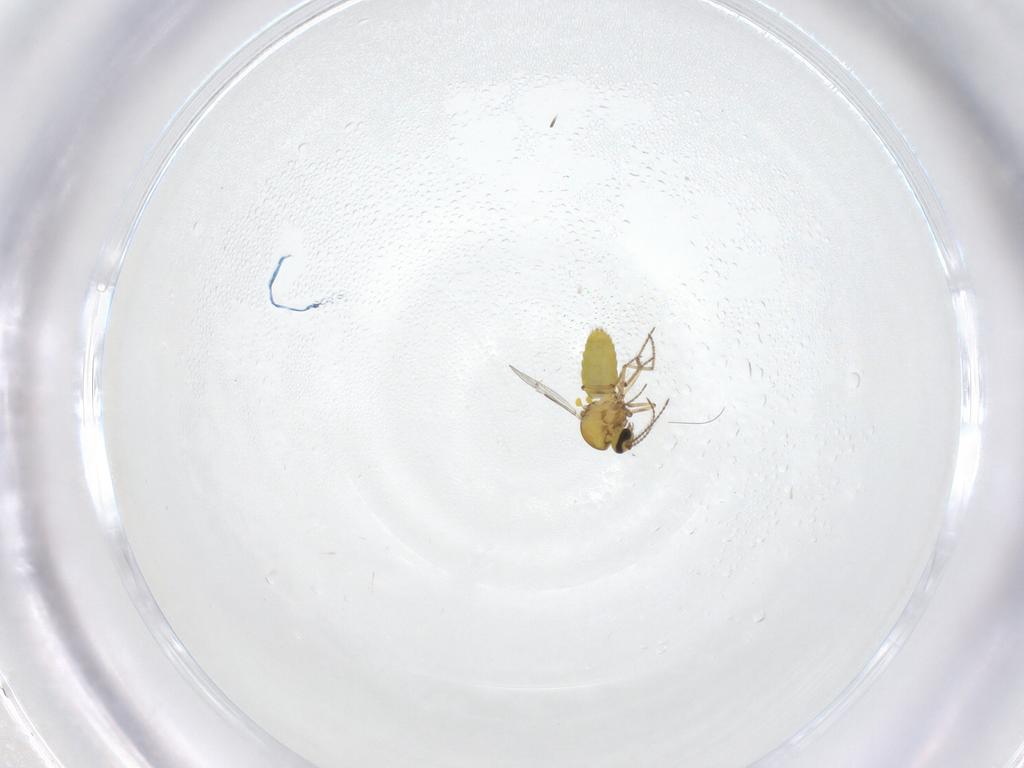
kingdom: Animalia
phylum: Arthropoda
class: Insecta
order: Diptera
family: Ceratopogonidae
